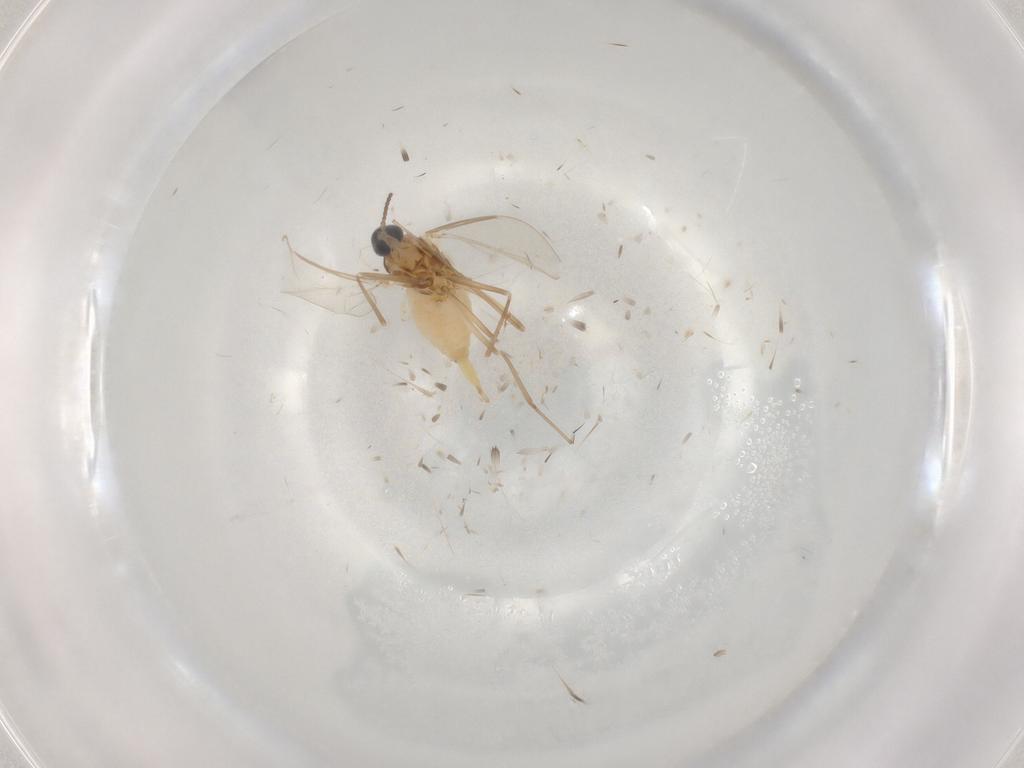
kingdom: Animalia
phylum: Arthropoda
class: Insecta
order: Diptera
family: Cecidomyiidae
